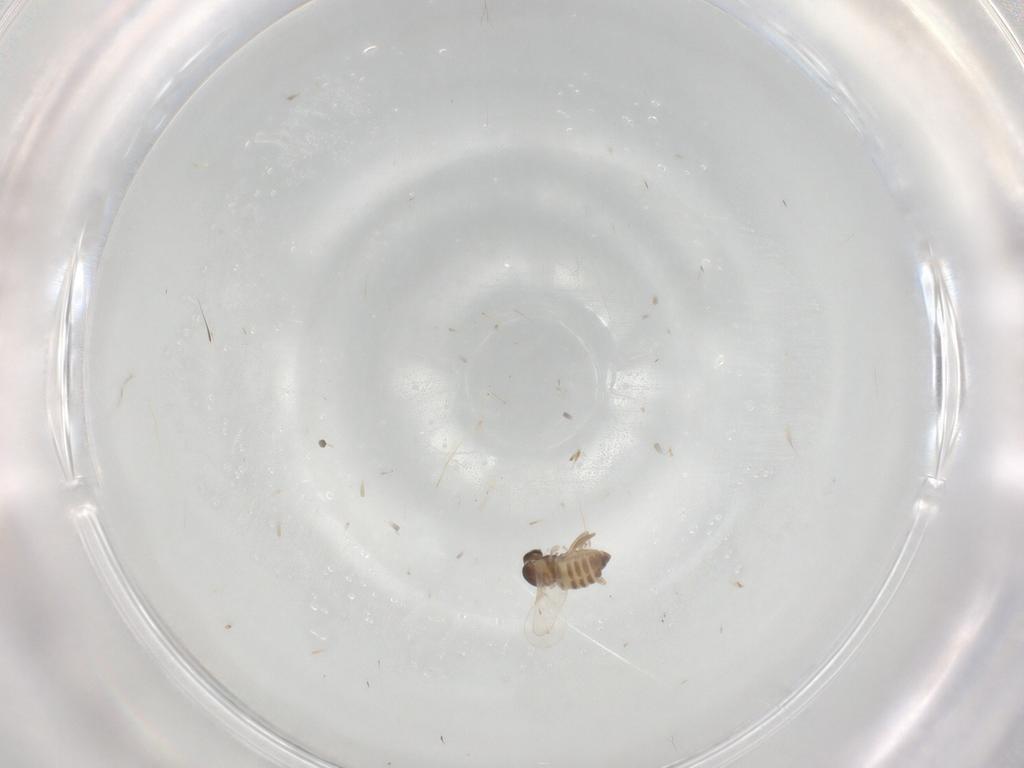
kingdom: Animalia
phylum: Arthropoda
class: Insecta
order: Diptera
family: Cecidomyiidae
